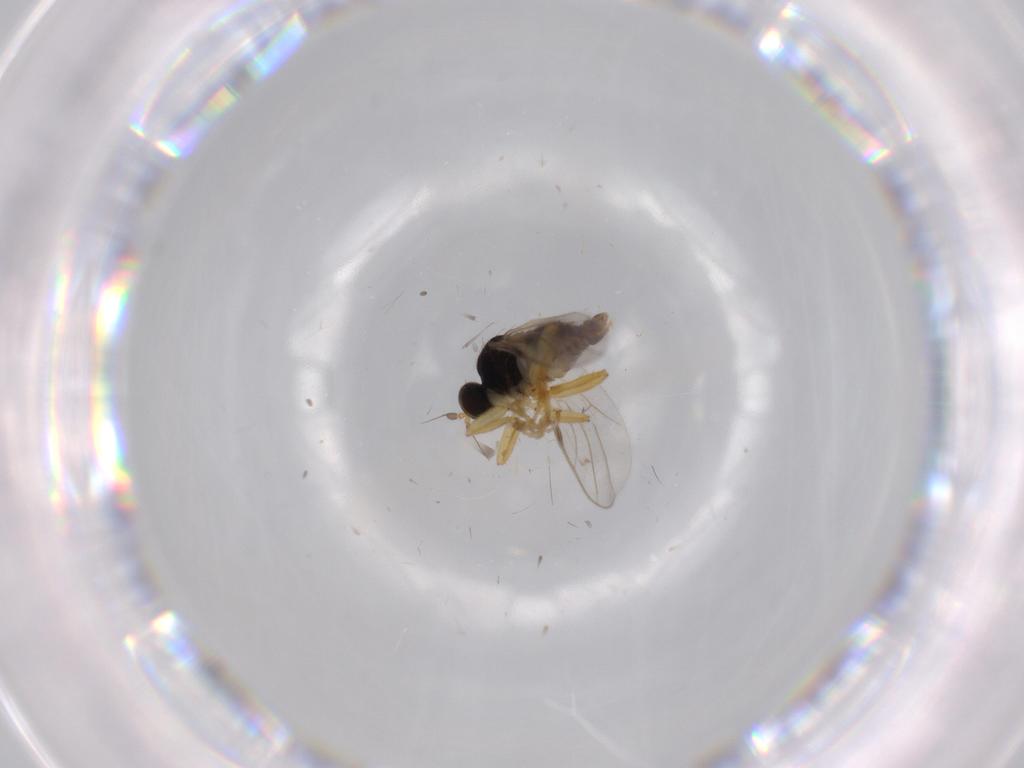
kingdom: Animalia
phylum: Arthropoda
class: Insecta
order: Diptera
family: Hybotidae
